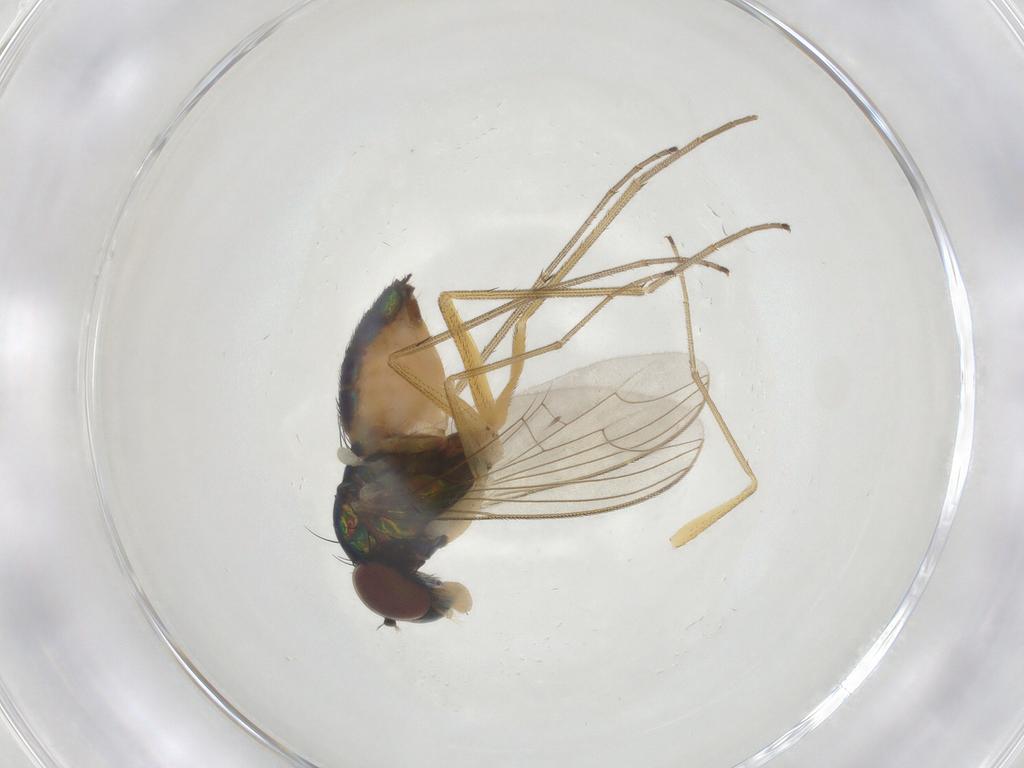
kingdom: Animalia
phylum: Arthropoda
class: Insecta
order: Diptera
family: Dolichopodidae
